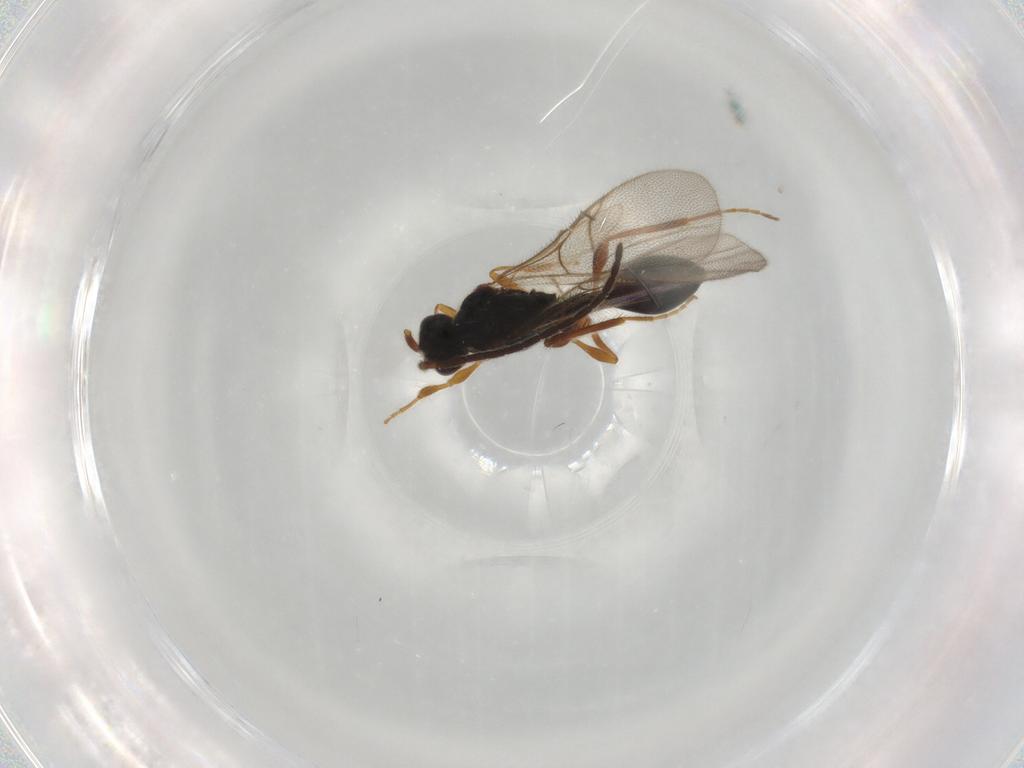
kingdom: Animalia
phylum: Arthropoda
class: Insecta
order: Hymenoptera
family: Diapriidae
